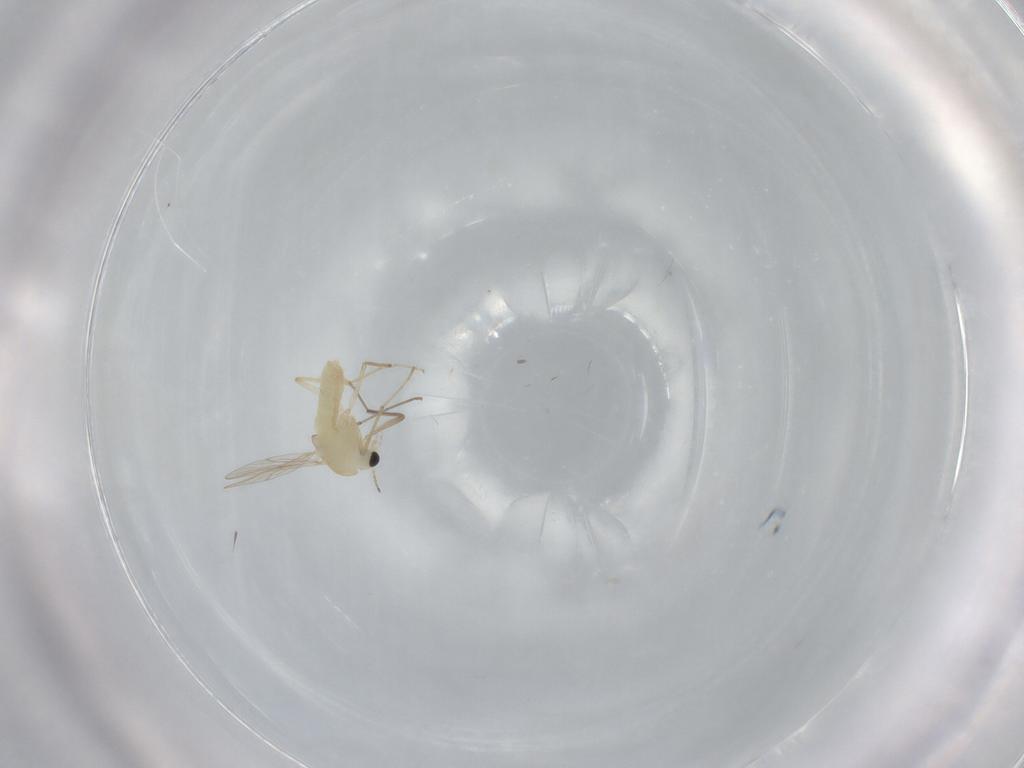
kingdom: Animalia
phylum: Arthropoda
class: Insecta
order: Diptera
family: Chironomidae
